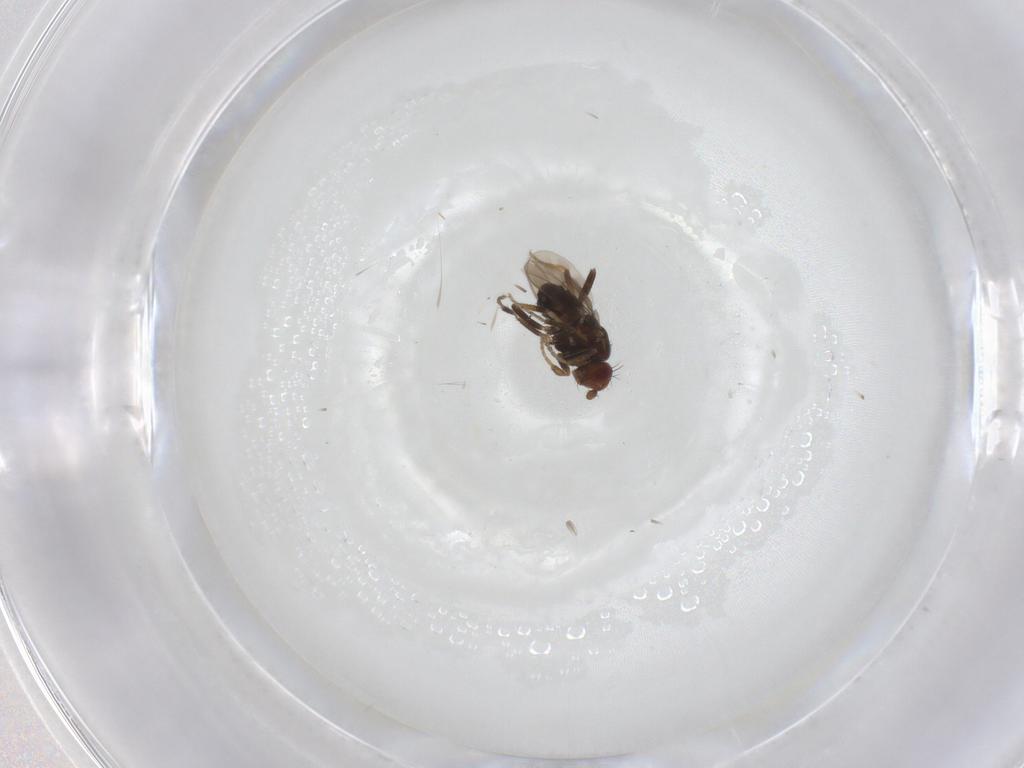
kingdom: Animalia
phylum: Arthropoda
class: Insecta
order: Diptera
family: Sphaeroceridae
